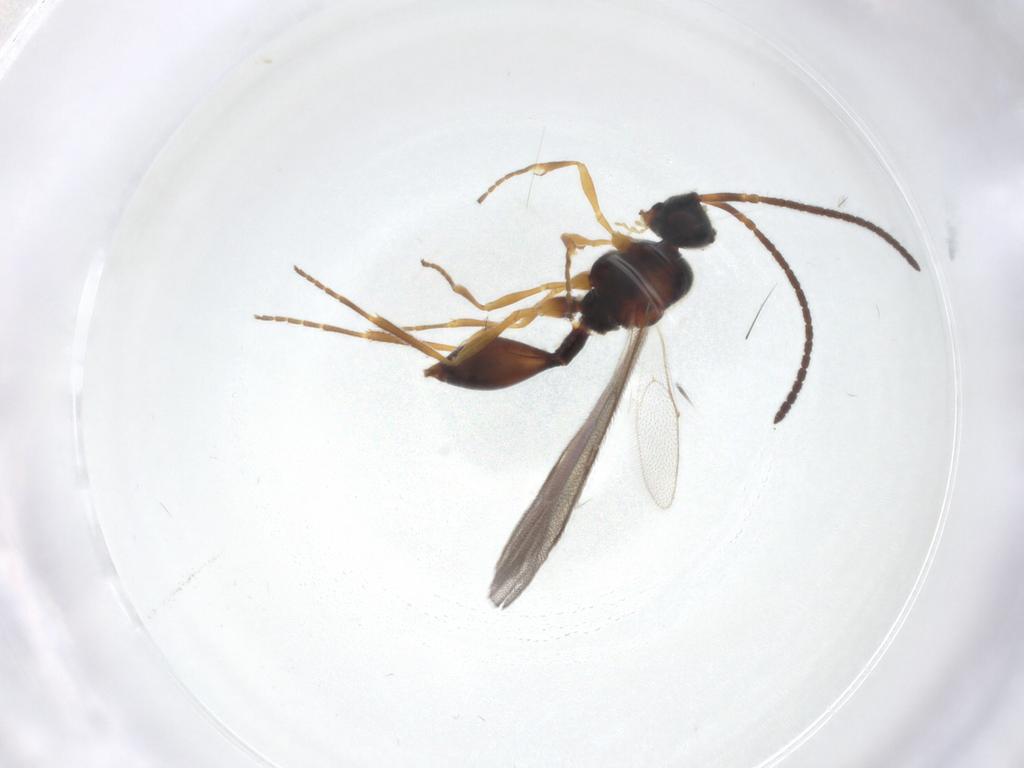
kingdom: Animalia
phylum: Arthropoda
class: Insecta
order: Hymenoptera
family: Diapriidae
